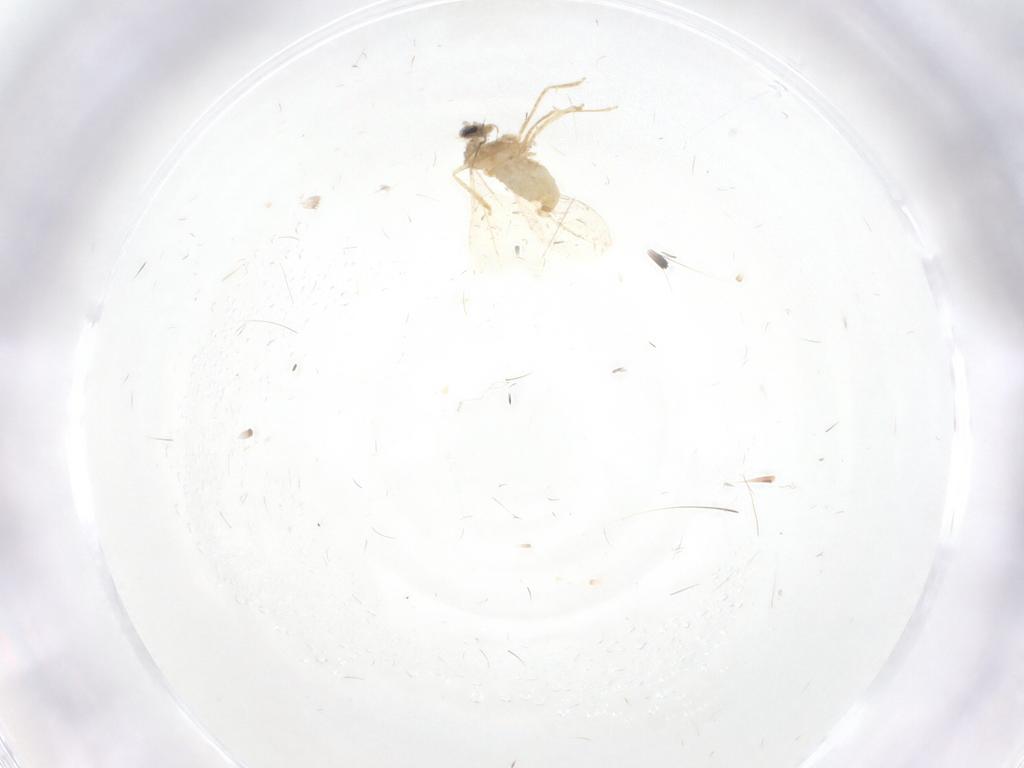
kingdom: Animalia
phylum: Arthropoda
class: Insecta
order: Diptera
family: Cecidomyiidae
